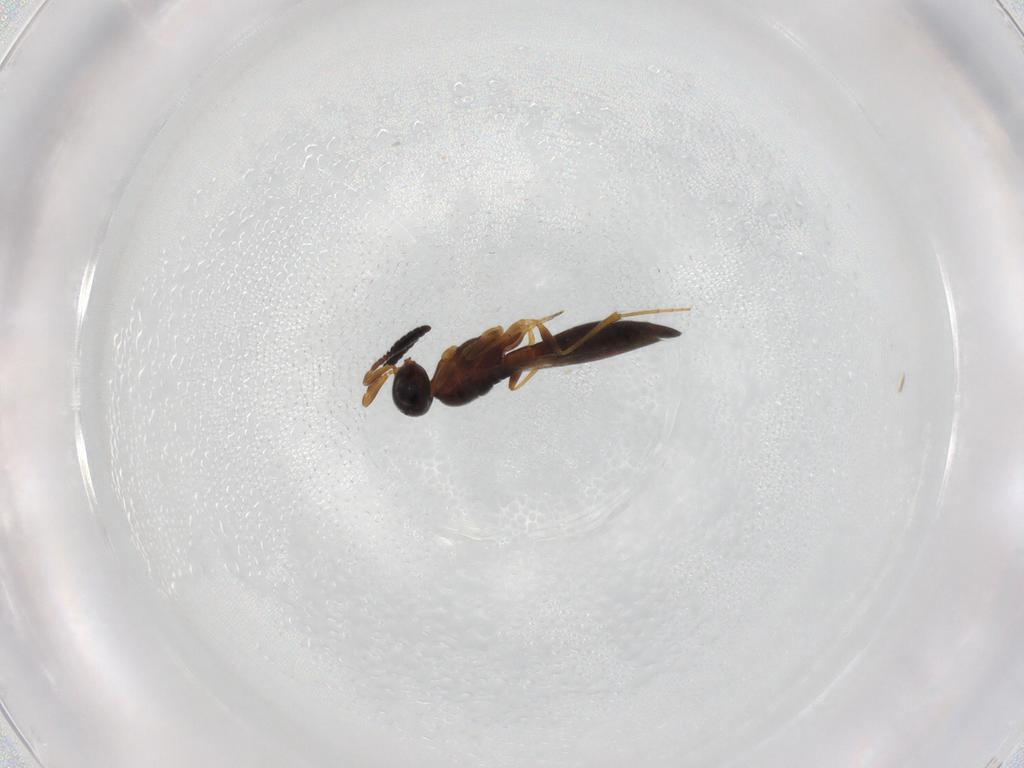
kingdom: Animalia
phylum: Arthropoda
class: Insecta
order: Hymenoptera
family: Scelionidae
